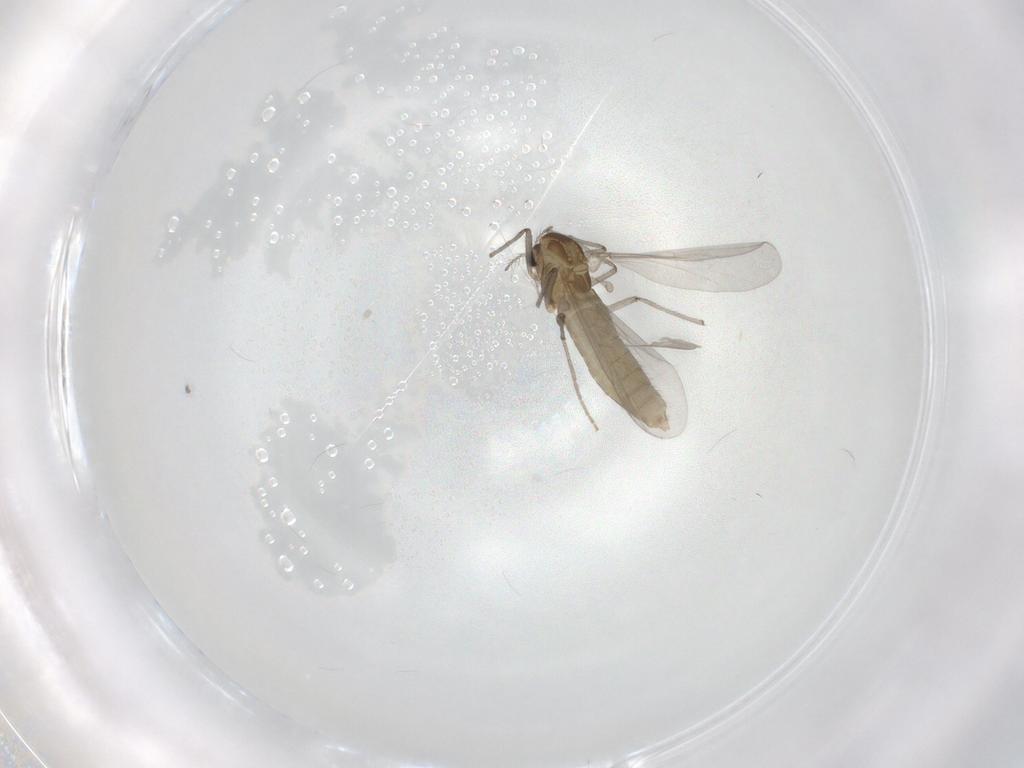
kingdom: Animalia
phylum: Arthropoda
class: Insecta
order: Diptera
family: Chironomidae
